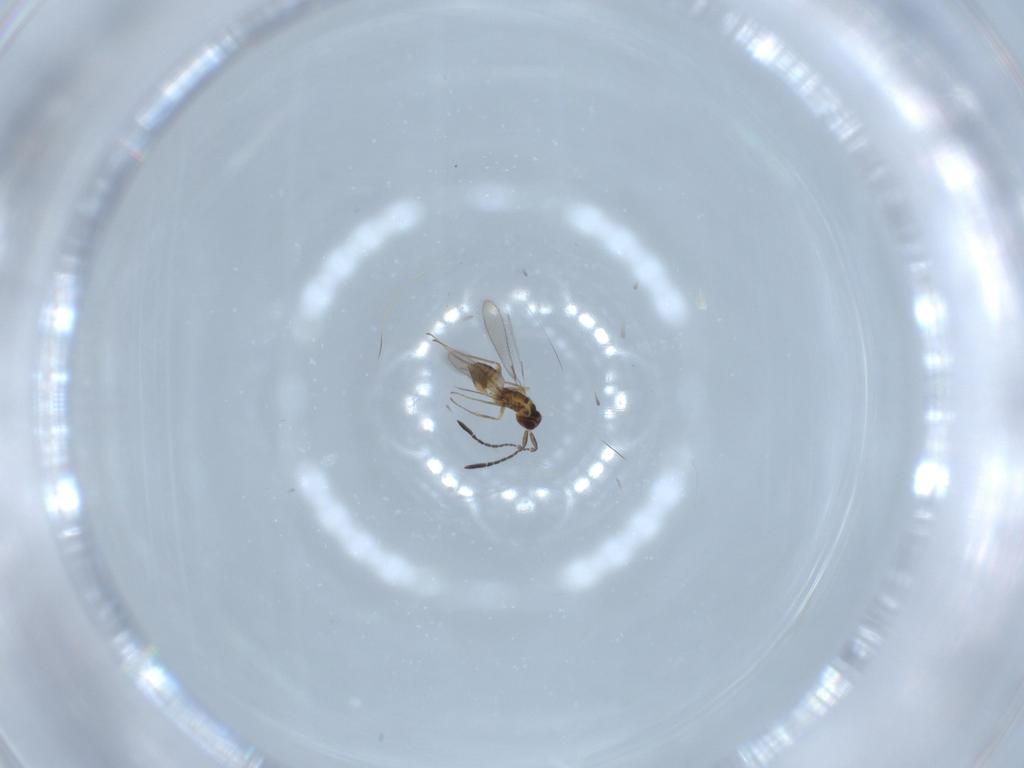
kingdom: Animalia
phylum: Arthropoda
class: Insecta
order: Hymenoptera
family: Mymaridae
